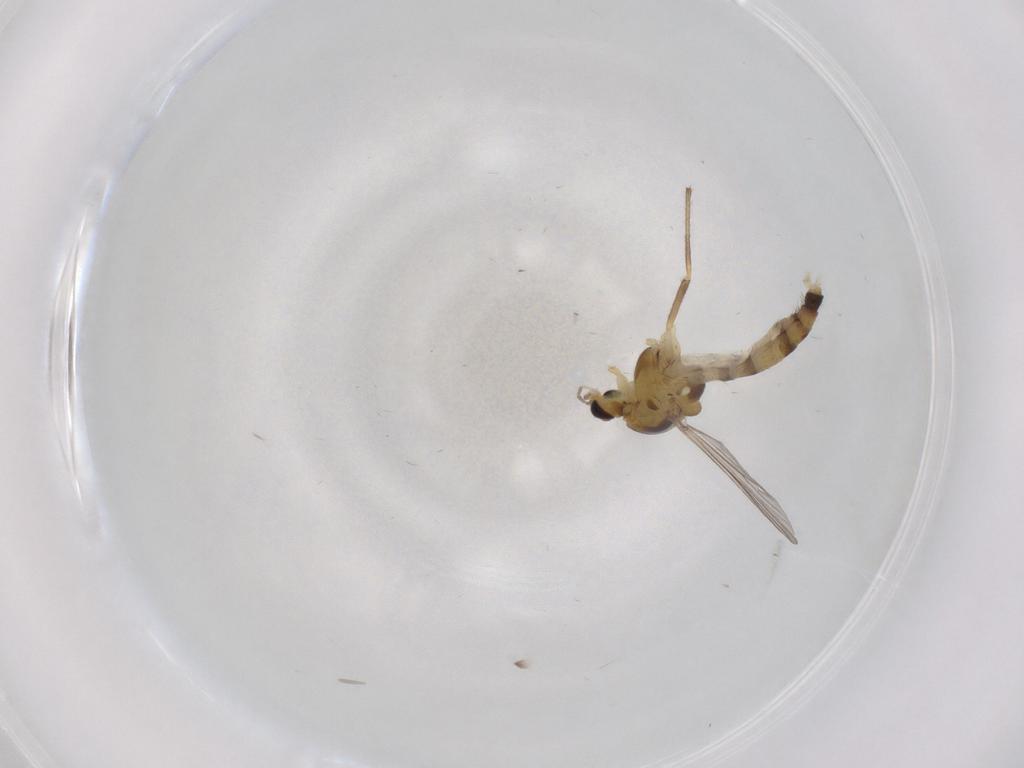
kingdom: Animalia
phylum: Arthropoda
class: Insecta
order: Diptera
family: Chironomidae
